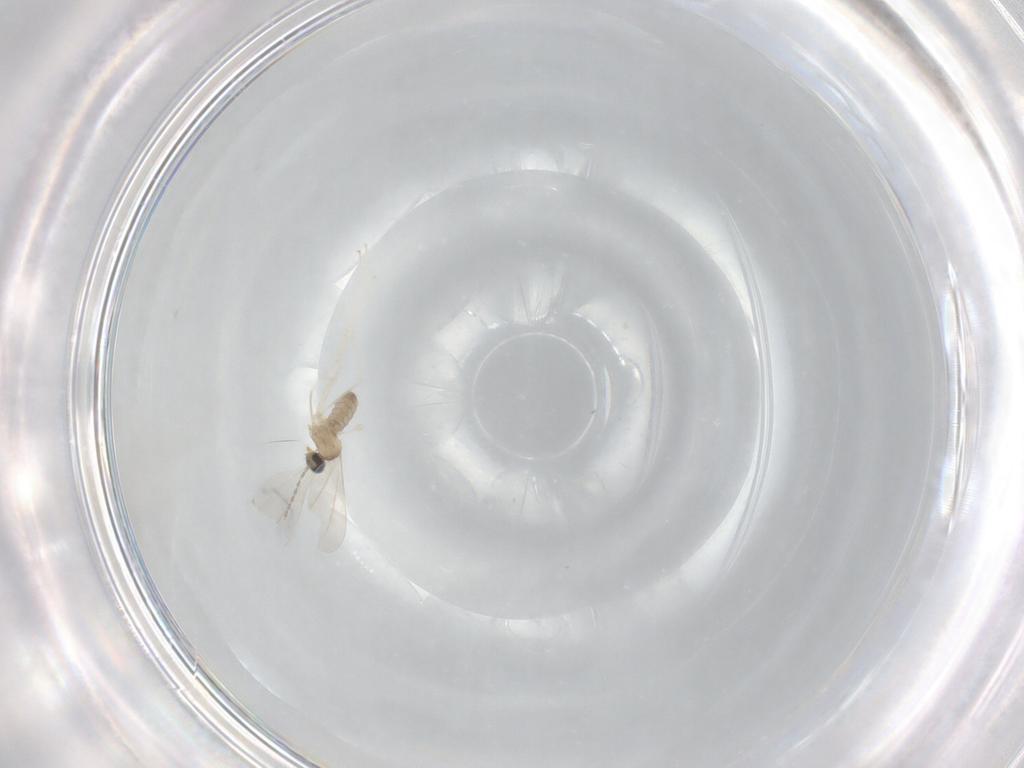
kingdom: Animalia
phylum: Arthropoda
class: Insecta
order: Diptera
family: Cecidomyiidae
